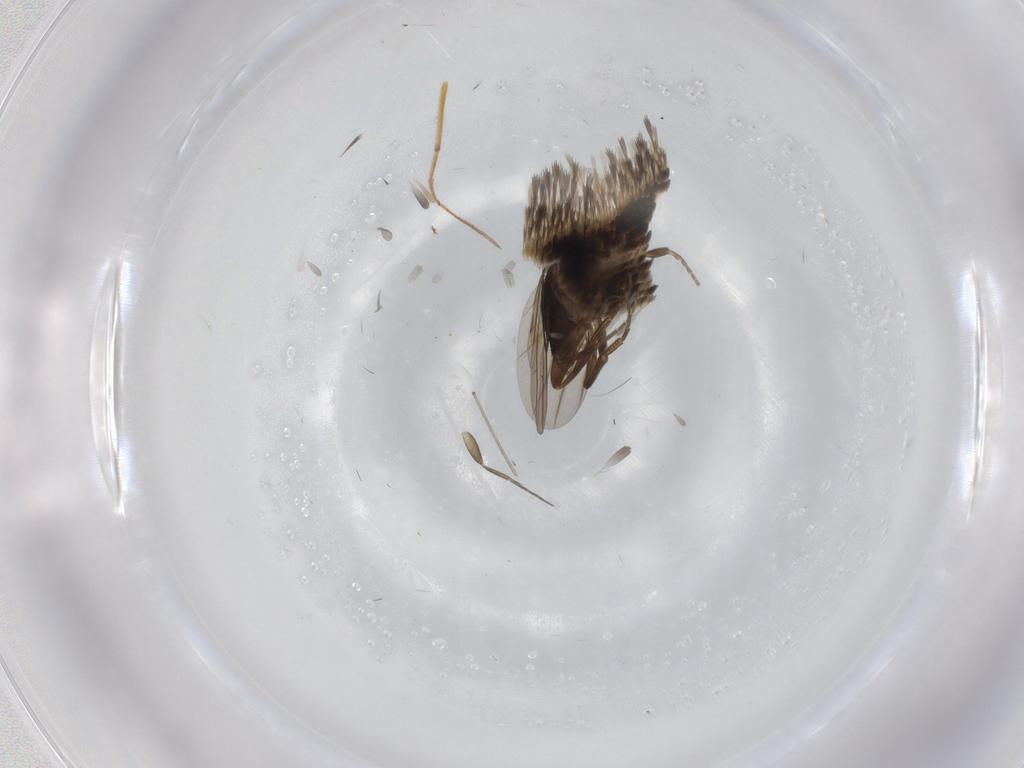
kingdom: Animalia
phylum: Arthropoda
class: Insecta
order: Diptera
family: Phoridae
